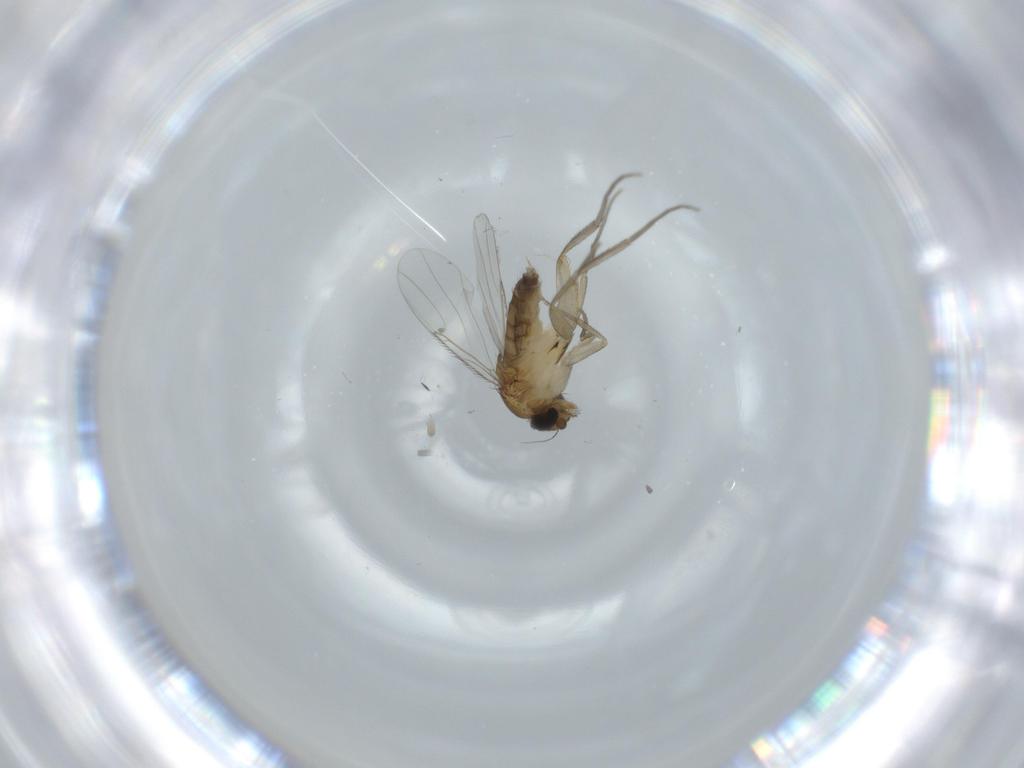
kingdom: Animalia
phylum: Arthropoda
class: Insecta
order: Diptera
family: Phoridae
